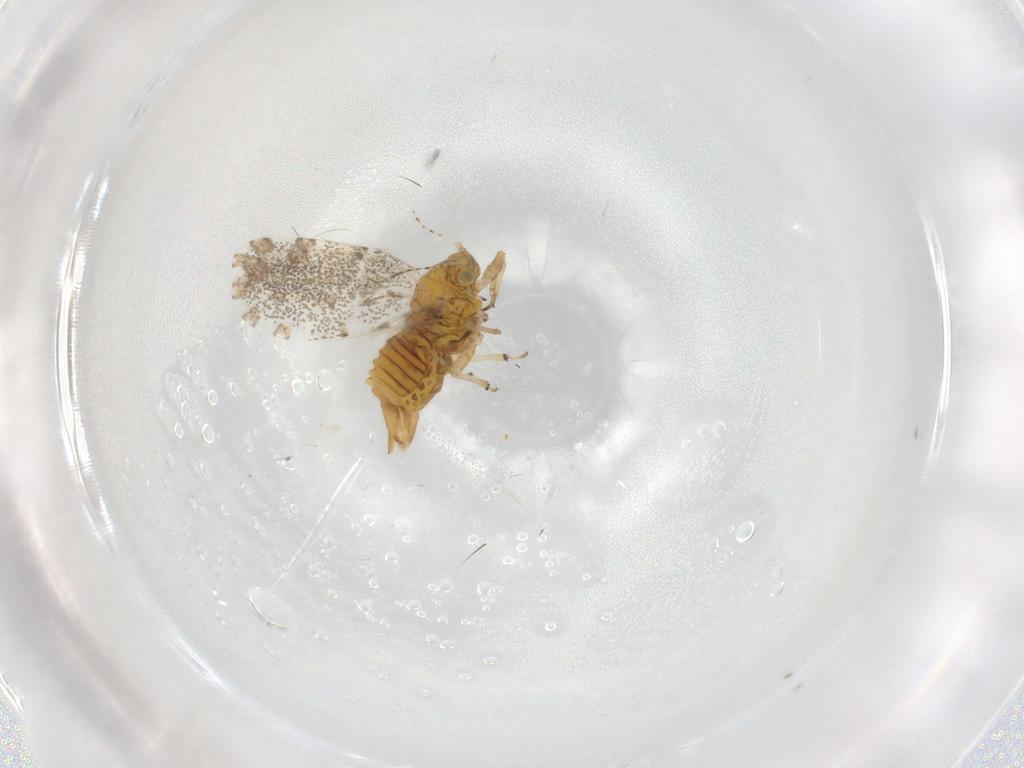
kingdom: Animalia
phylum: Arthropoda
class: Insecta
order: Hemiptera
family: Psylloidea_incertae_sedis
